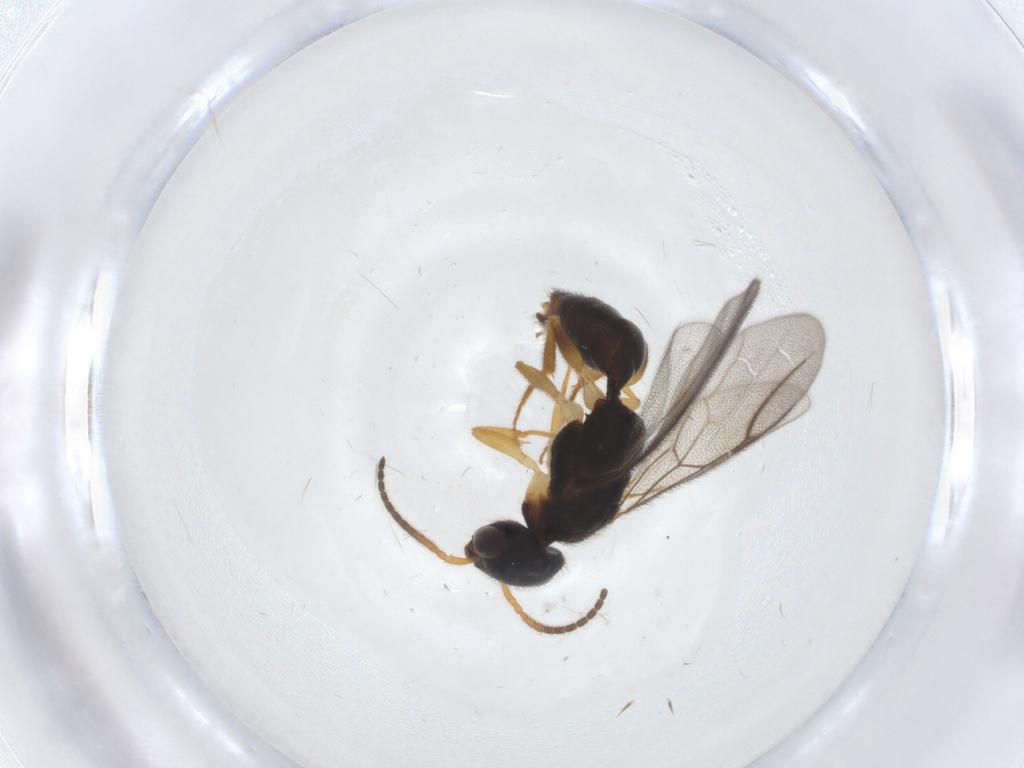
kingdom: Animalia
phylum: Arthropoda
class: Insecta
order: Hymenoptera
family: Bethylidae
